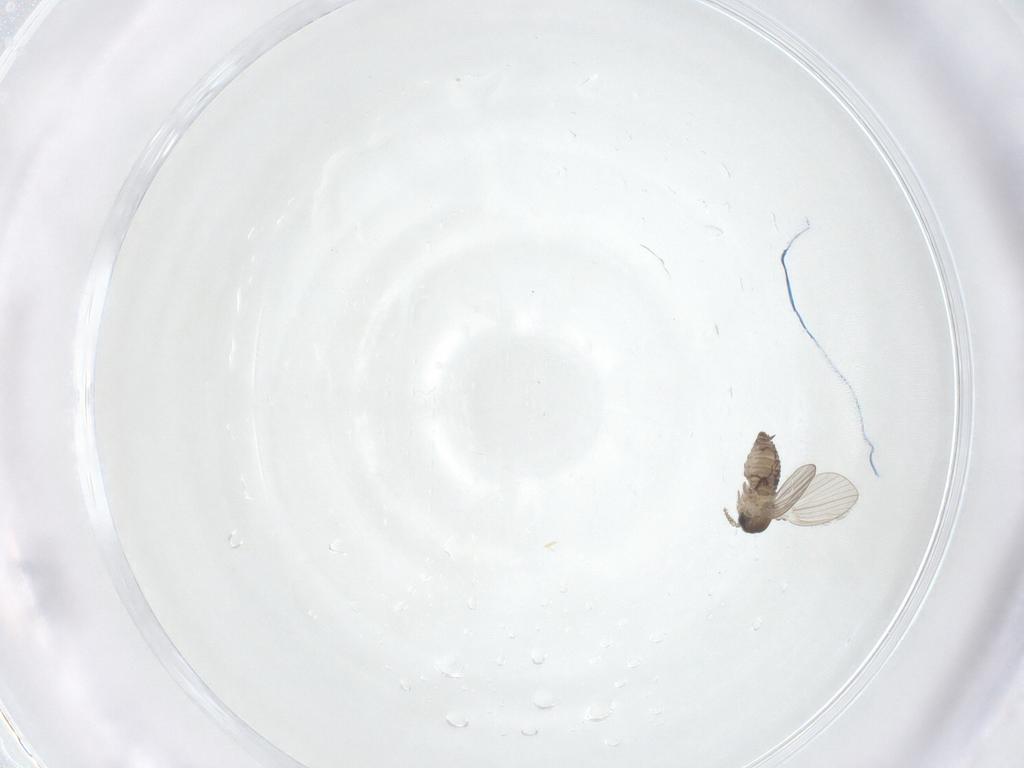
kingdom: Animalia
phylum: Arthropoda
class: Insecta
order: Diptera
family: Psychodidae
